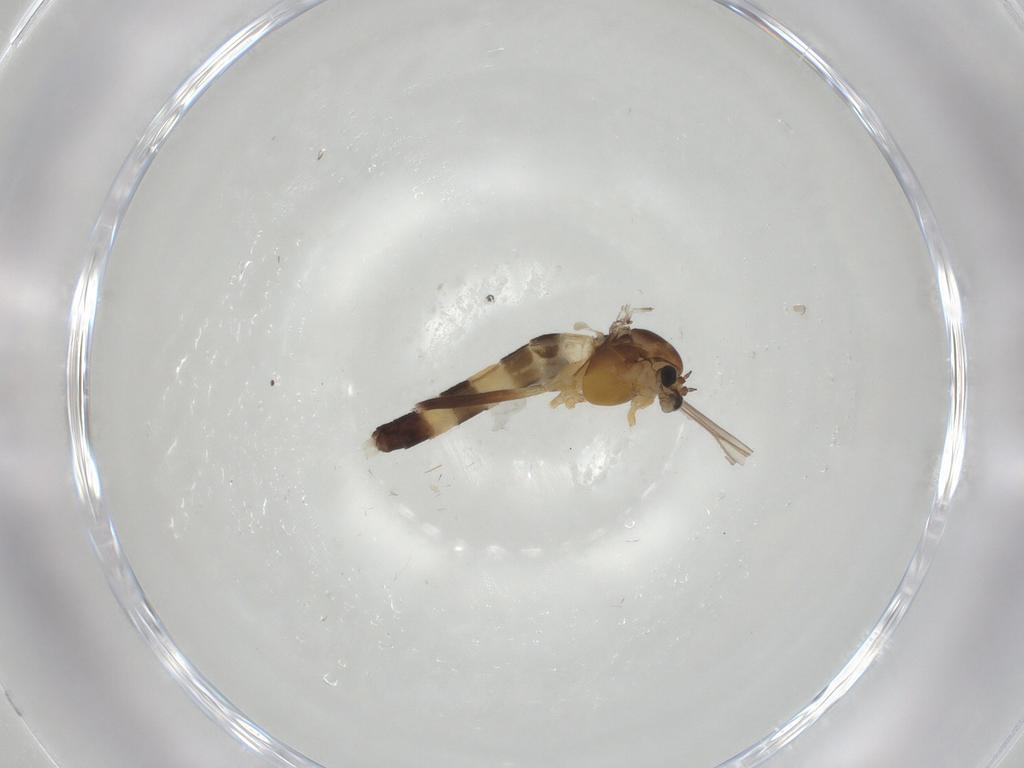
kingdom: Animalia
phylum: Arthropoda
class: Insecta
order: Diptera
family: Chironomidae
